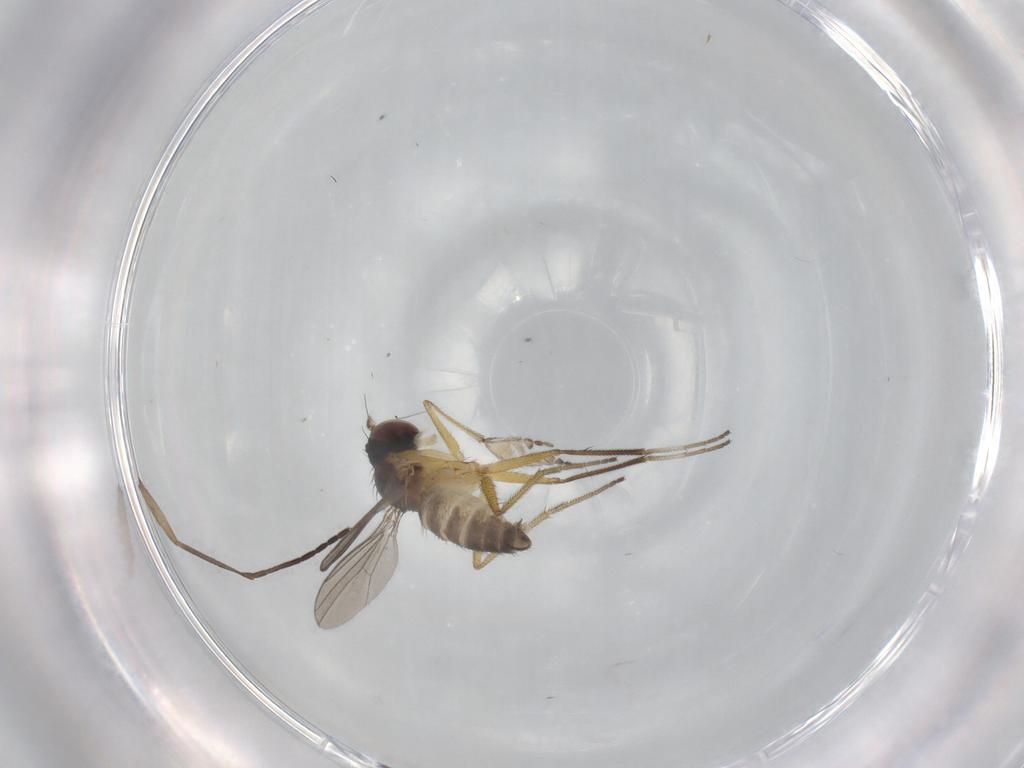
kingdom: Animalia
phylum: Arthropoda
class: Insecta
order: Diptera
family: Dolichopodidae
